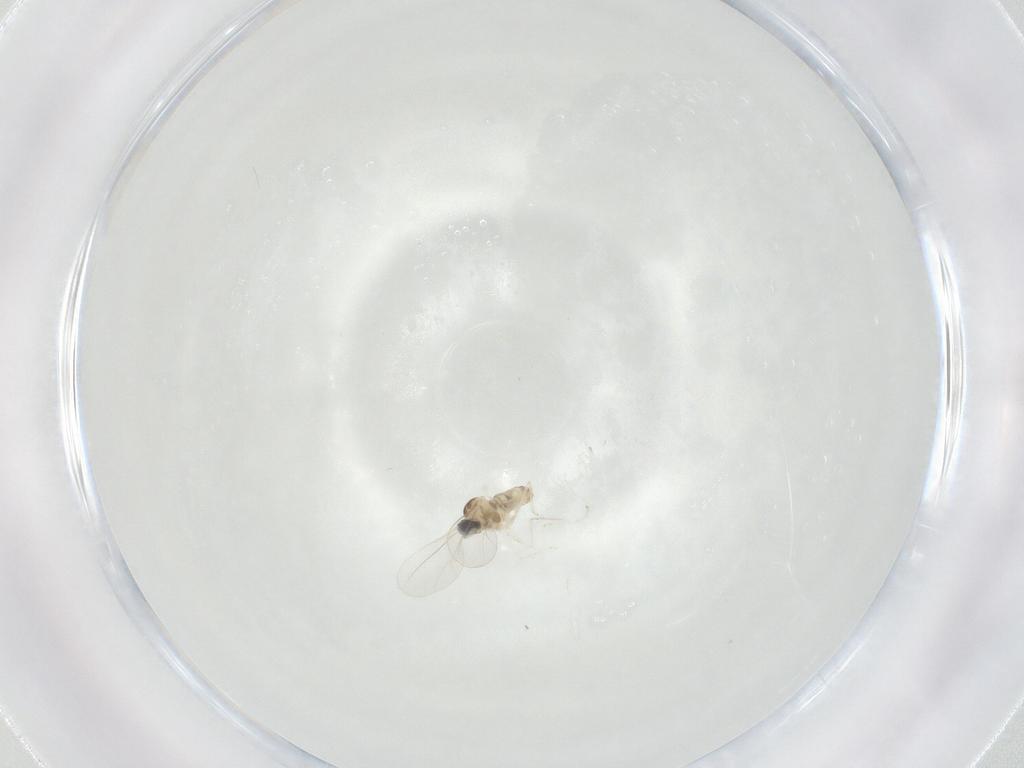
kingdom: Animalia
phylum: Arthropoda
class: Insecta
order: Diptera
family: Cecidomyiidae
